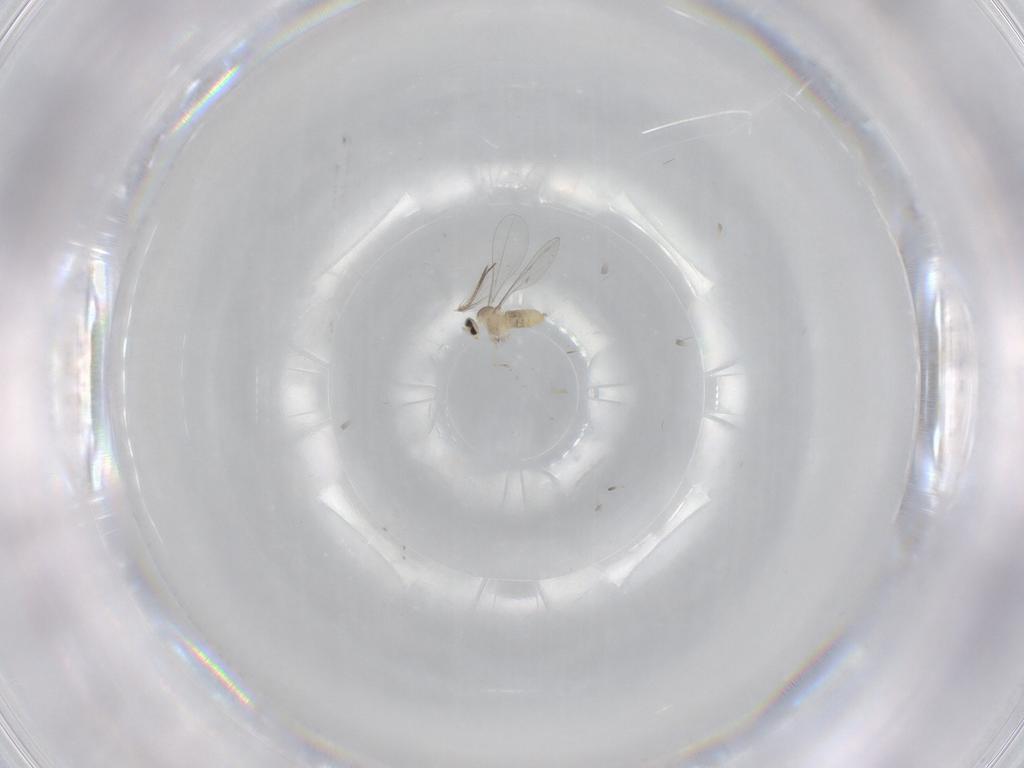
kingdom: Animalia
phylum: Arthropoda
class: Insecta
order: Diptera
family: Cecidomyiidae
